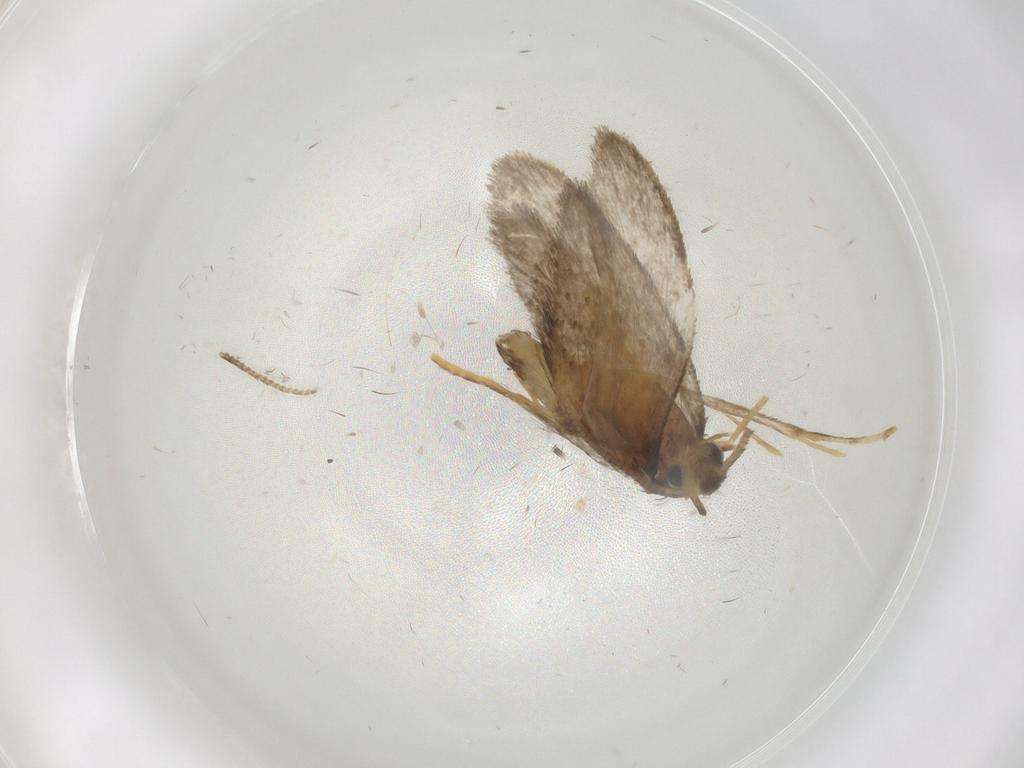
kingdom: Animalia
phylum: Arthropoda
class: Insecta
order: Lepidoptera
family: Psychidae
